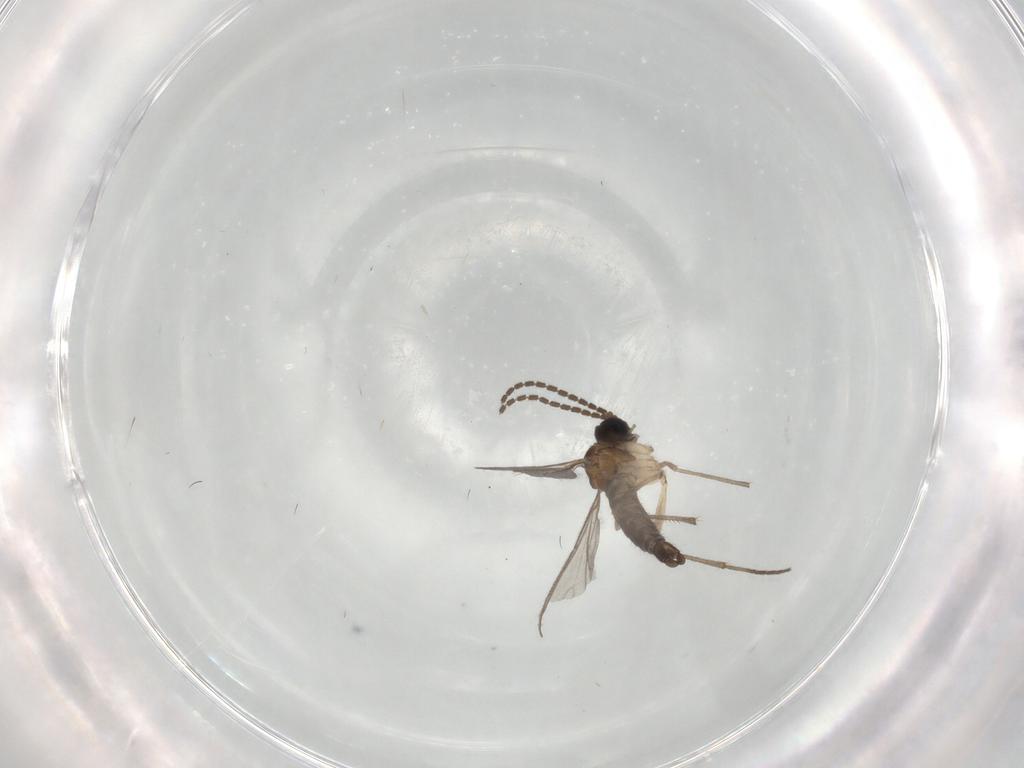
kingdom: Animalia
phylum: Arthropoda
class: Insecta
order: Diptera
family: Sciaridae
